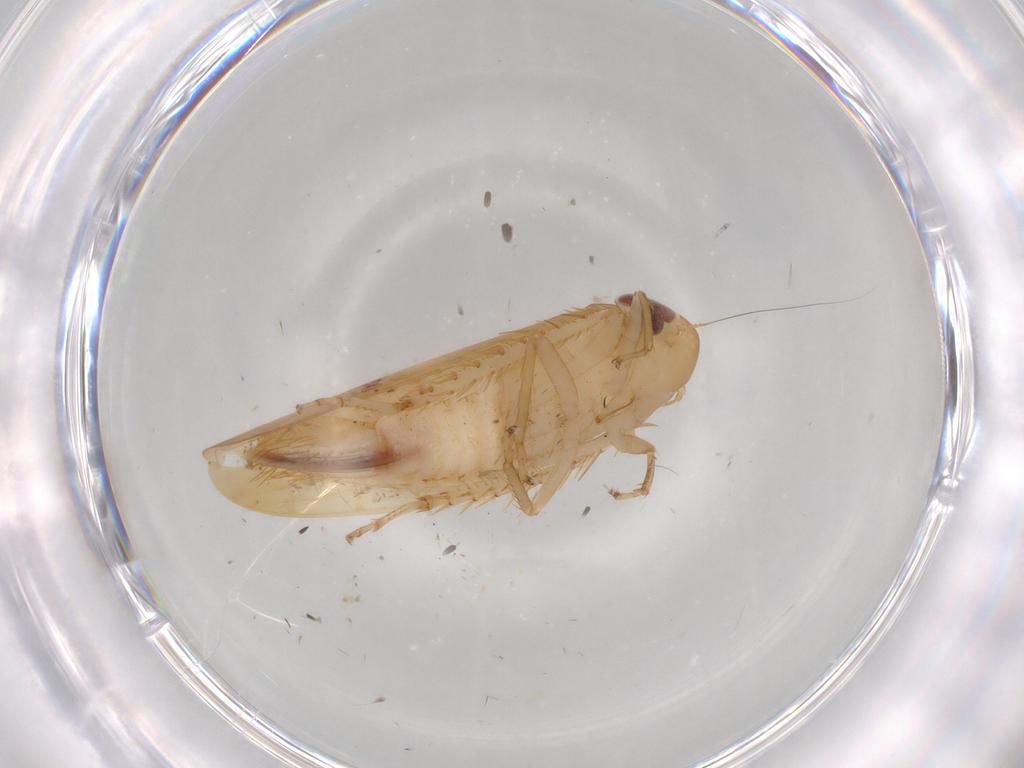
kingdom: Animalia
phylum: Arthropoda
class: Insecta
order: Hemiptera
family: Cicadellidae
